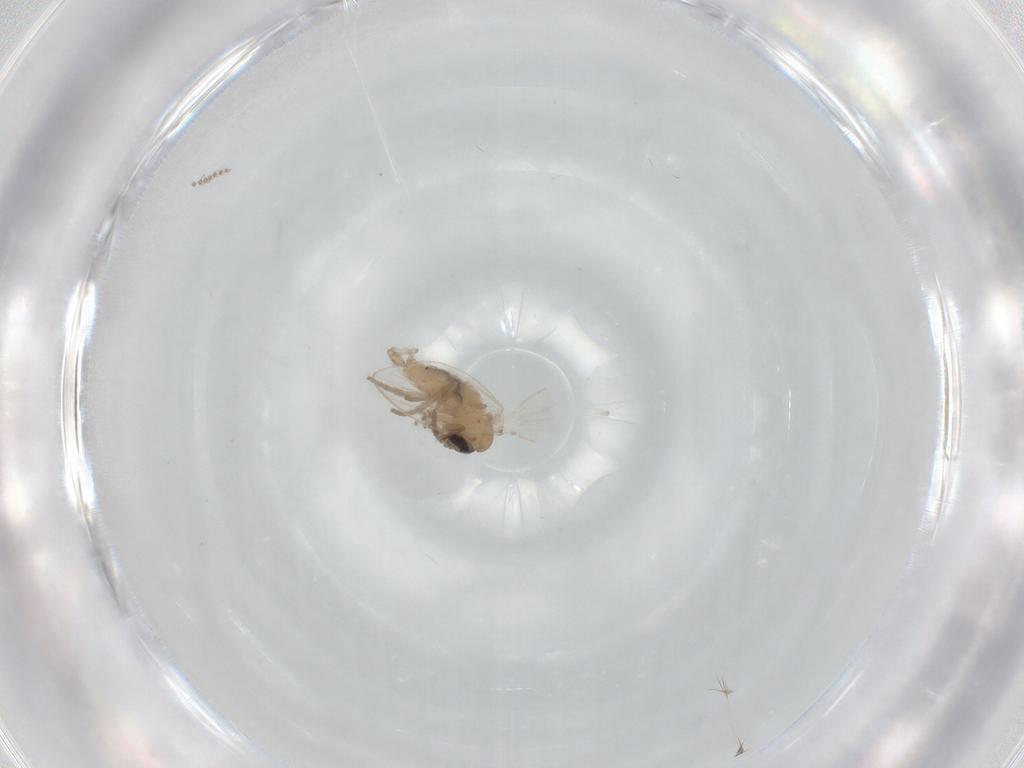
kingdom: Animalia
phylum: Arthropoda
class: Insecta
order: Diptera
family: Psychodidae
